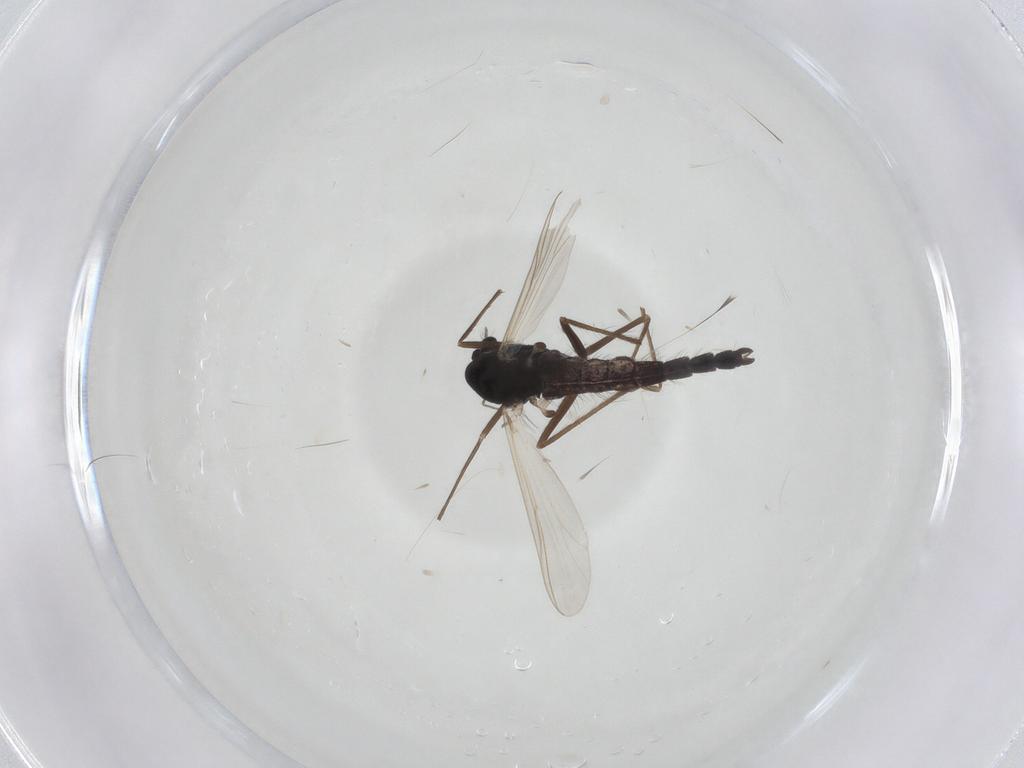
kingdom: Animalia
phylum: Arthropoda
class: Insecta
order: Diptera
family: Chironomidae
